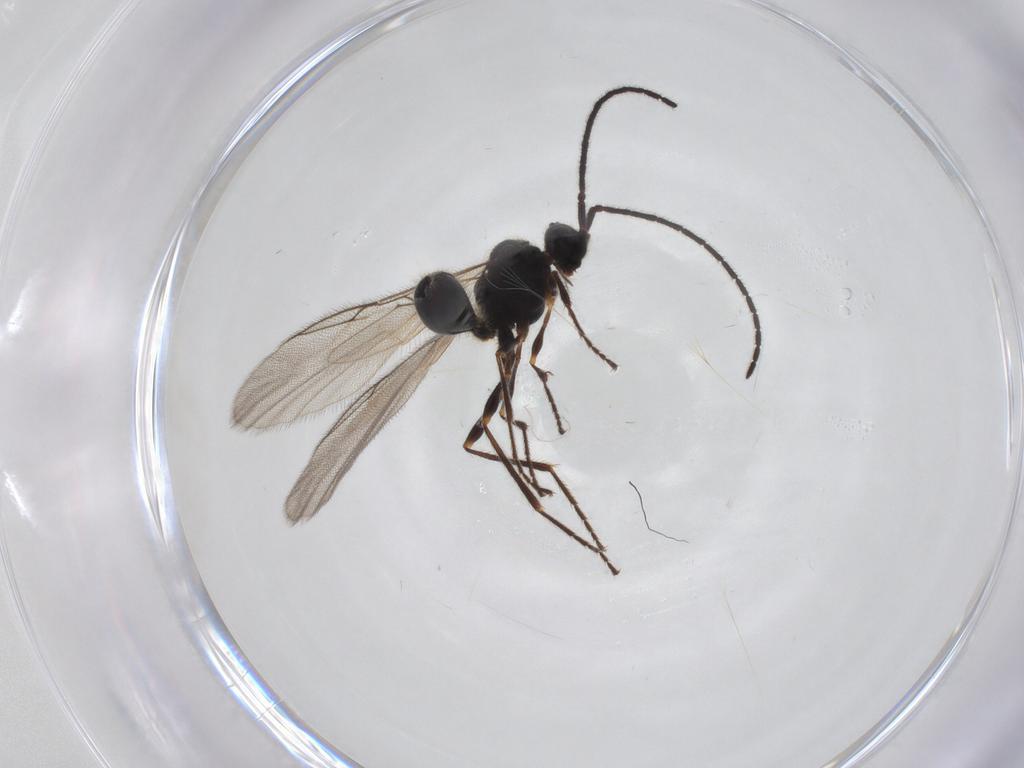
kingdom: Animalia
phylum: Arthropoda
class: Insecta
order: Hymenoptera
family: Diapriidae
